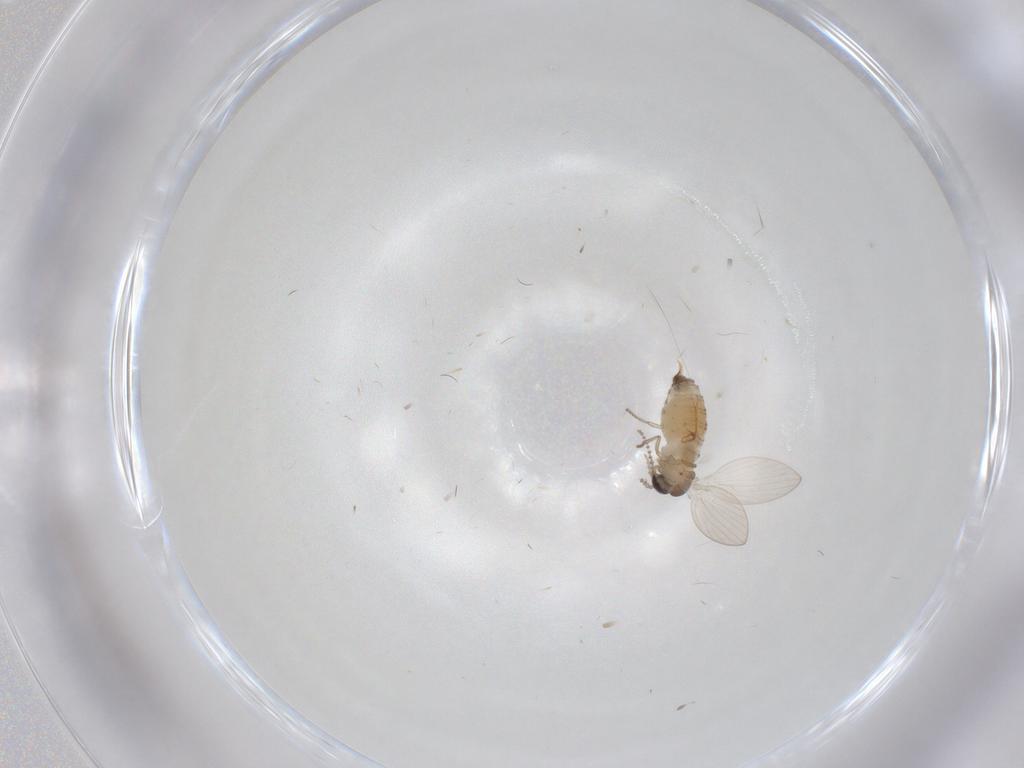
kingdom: Animalia
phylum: Arthropoda
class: Insecta
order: Diptera
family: Psychodidae
